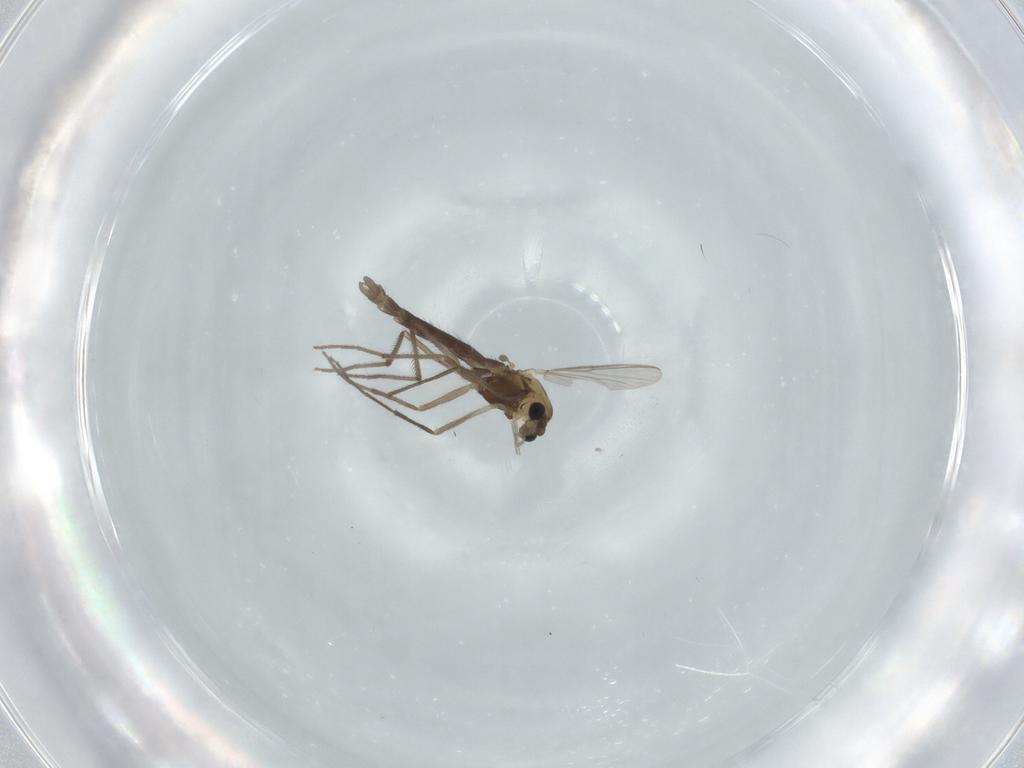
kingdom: Animalia
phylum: Arthropoda
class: Insecta
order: Diptera
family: Chironomidae
